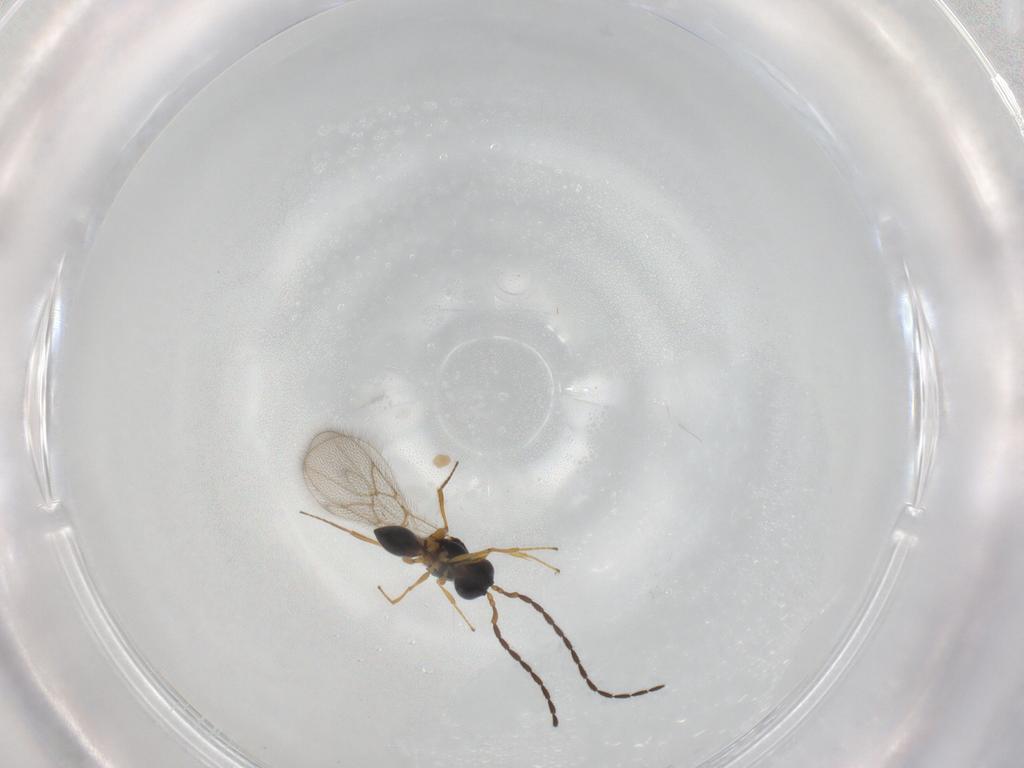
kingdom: Animalia
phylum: Arthropoda
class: Insecta
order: Hymenoptera
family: Figitidae
